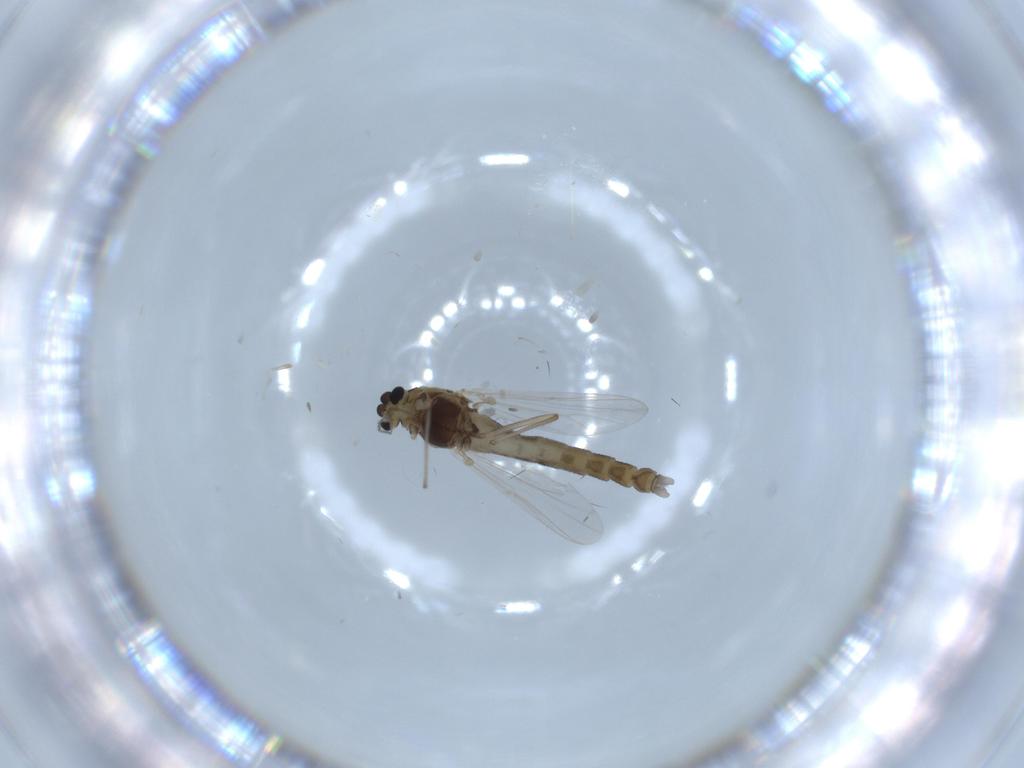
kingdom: Animalia
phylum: Arthropoda
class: Insecta
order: Diptera
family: Chironomidae
